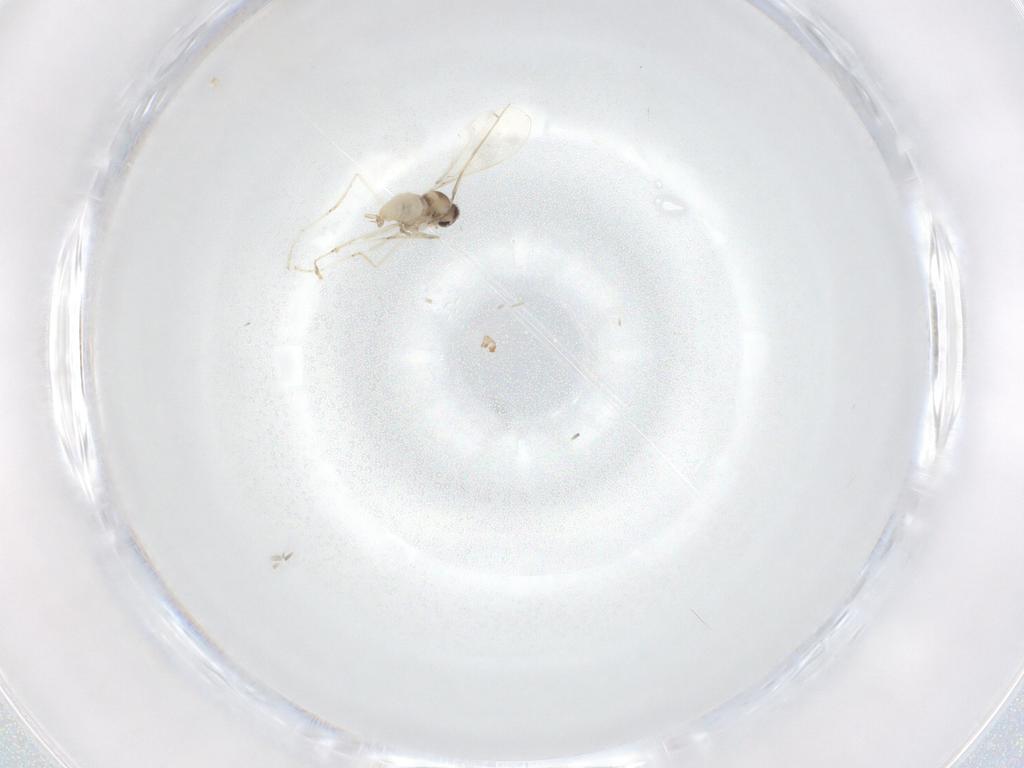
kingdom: Animalia
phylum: Arthropoda
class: Insecta
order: Diptera
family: Cecidomyiidae
